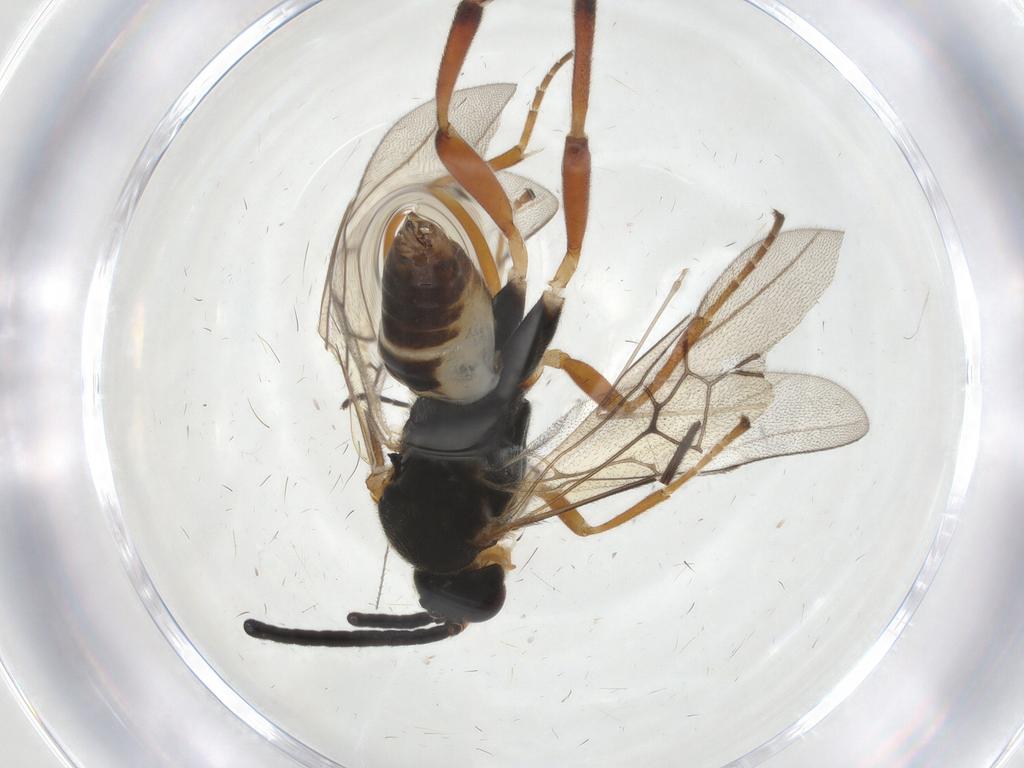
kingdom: Animalia
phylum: Arthropoda
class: Insecta
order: Lepidoptera
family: Tortricidae
